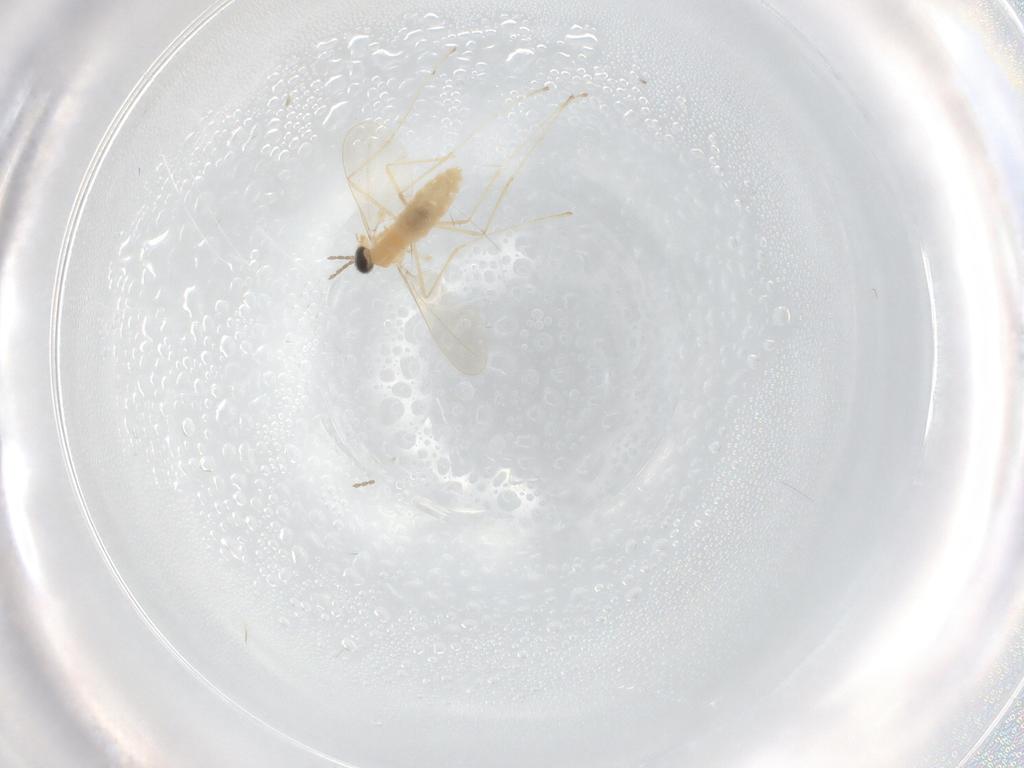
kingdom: Animalia
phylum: Arthropoda
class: Insecta
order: Diptera
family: Cecidomyiidae
